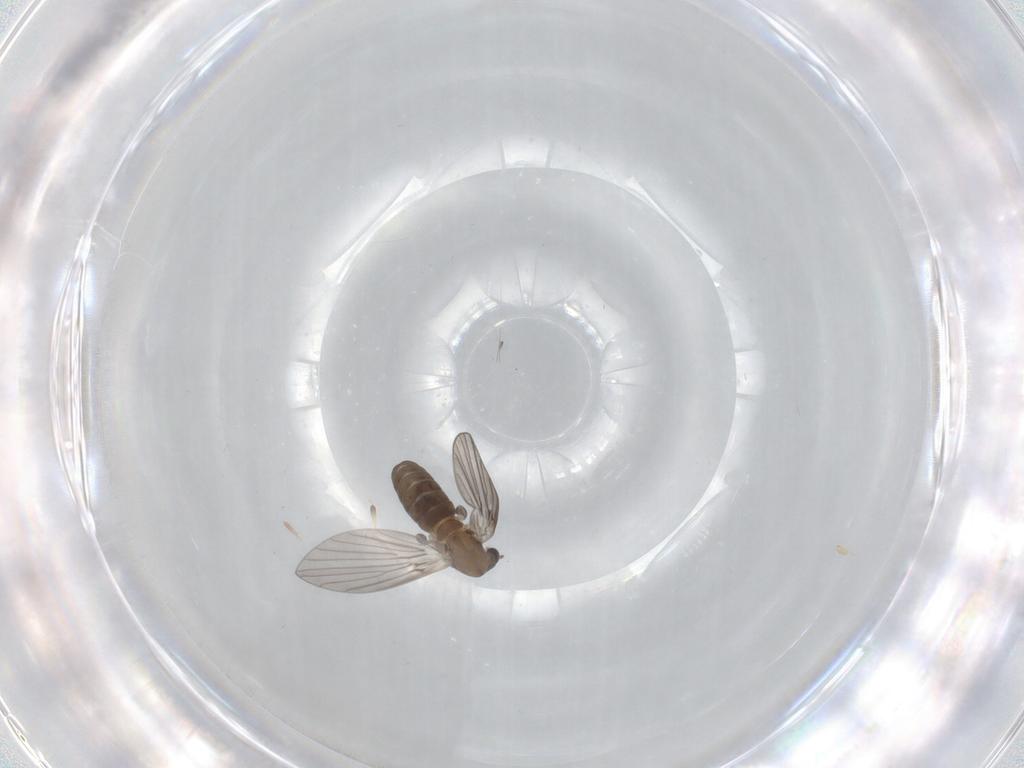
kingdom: Animalia
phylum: Arthropoda
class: Insecta
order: Diptera
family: Psychodidae
